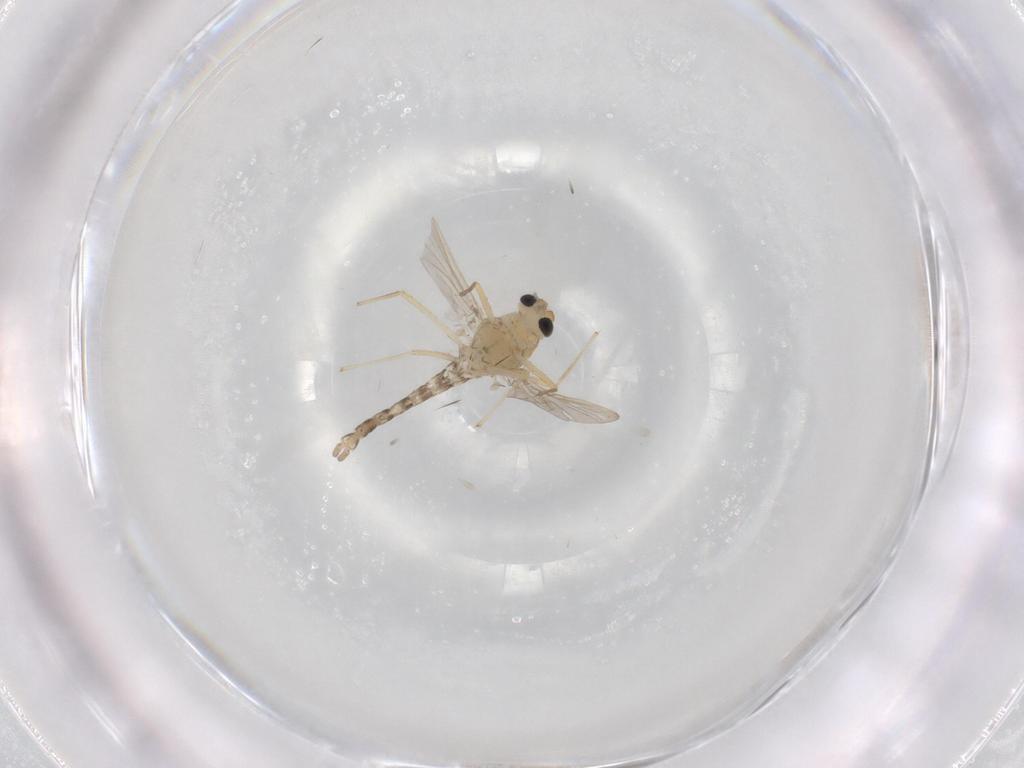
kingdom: Animalia
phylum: Arthropoda
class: Insecta
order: Diptera
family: Chironomidae
